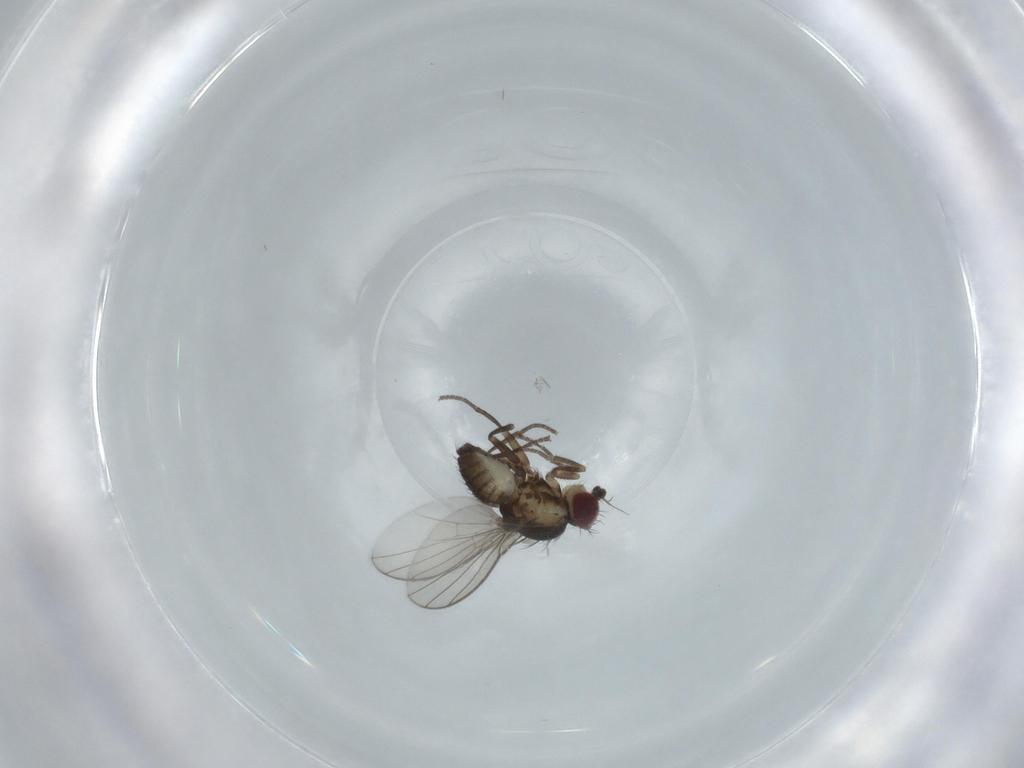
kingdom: Animalia
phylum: Arthropoda
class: Insecta
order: Diptera
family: Agromyzidae
